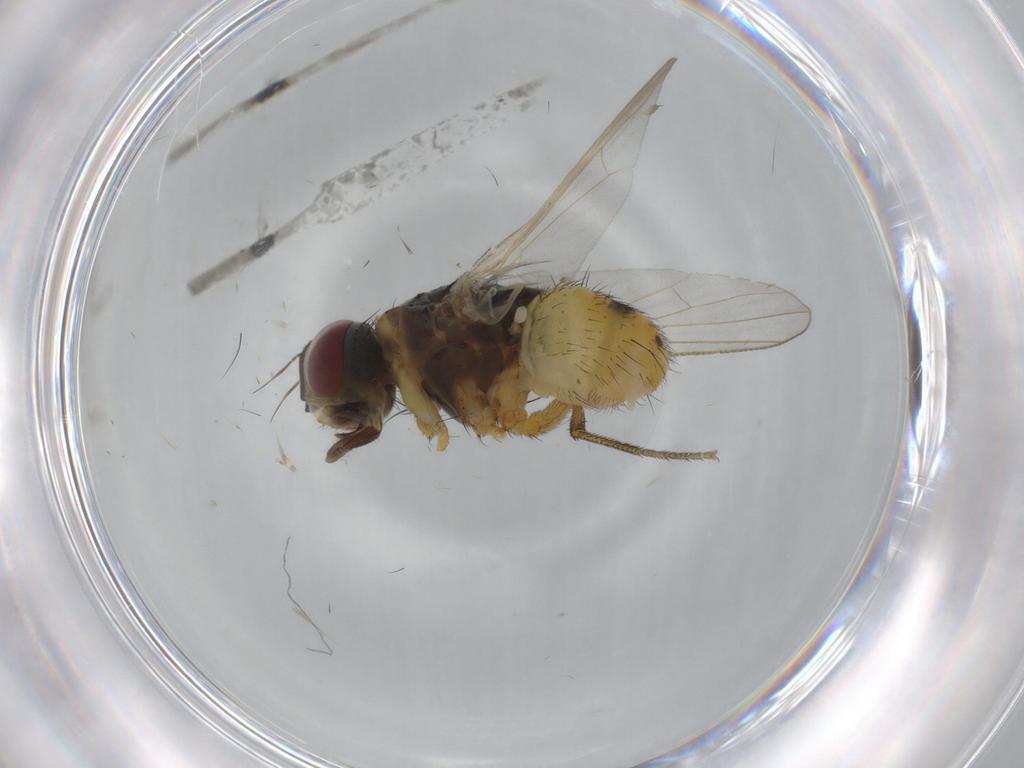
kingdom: Animalia
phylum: Arthropoda
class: Insecta
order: Diptera
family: Muscidae
